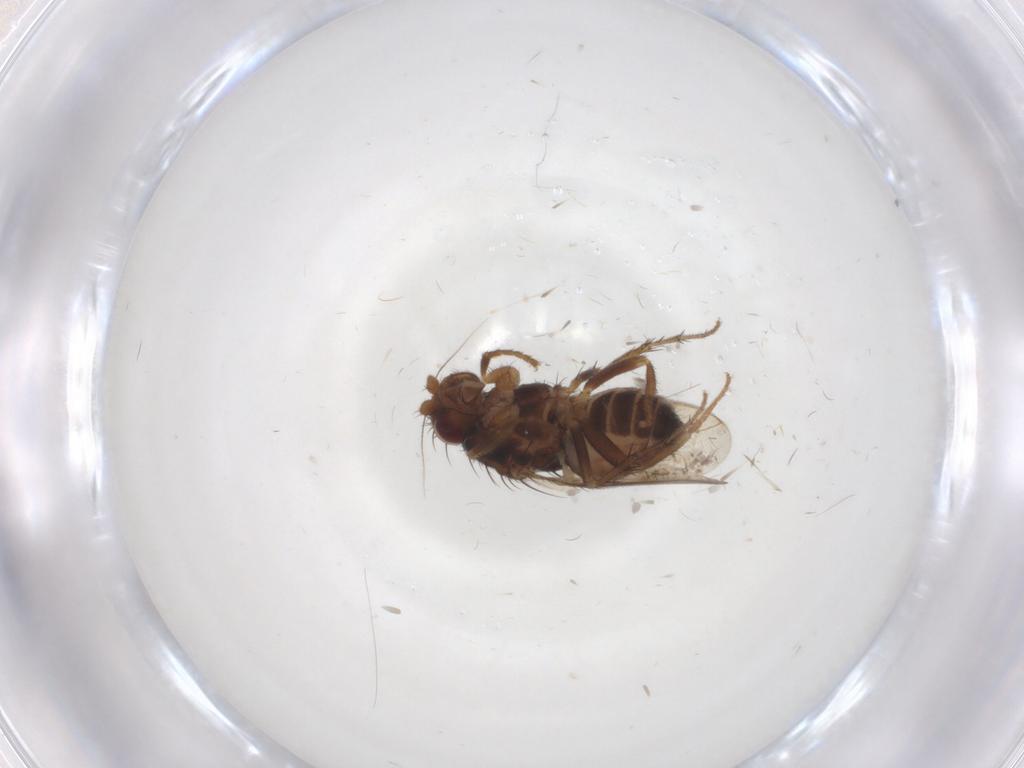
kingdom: Animalia
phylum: Arthropoda
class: Insecta
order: Diptera
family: Sphaeroceridae
